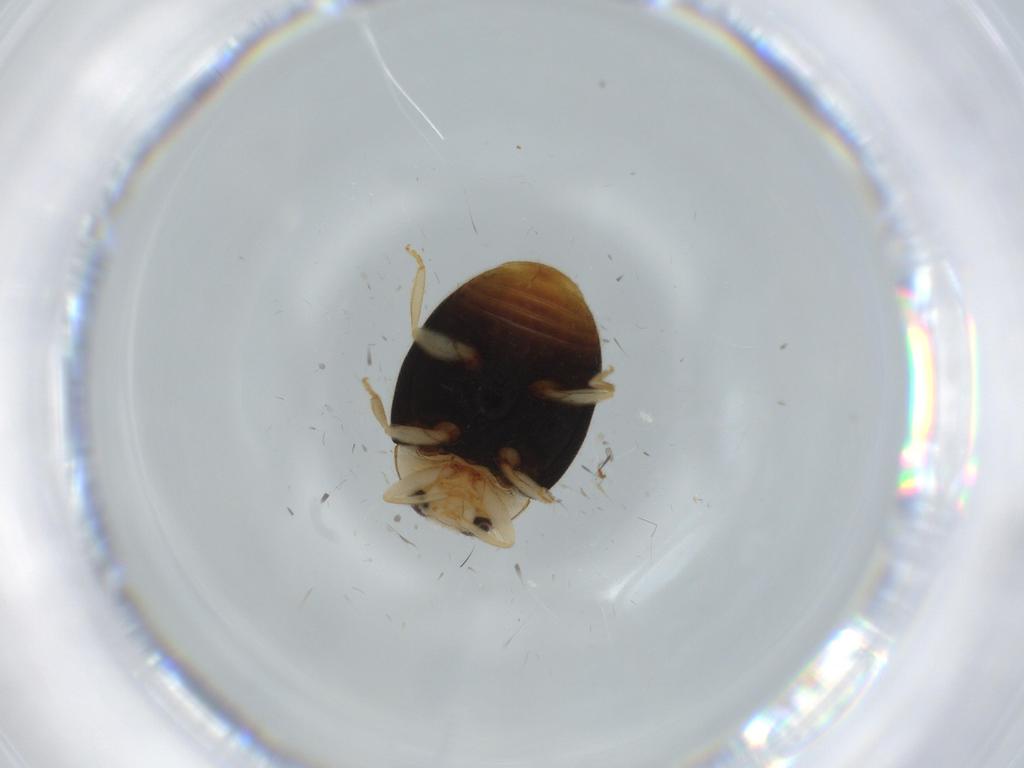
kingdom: Animalia
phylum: Arthropoda
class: Insecta
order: Coleoptera
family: Coccinellidae
